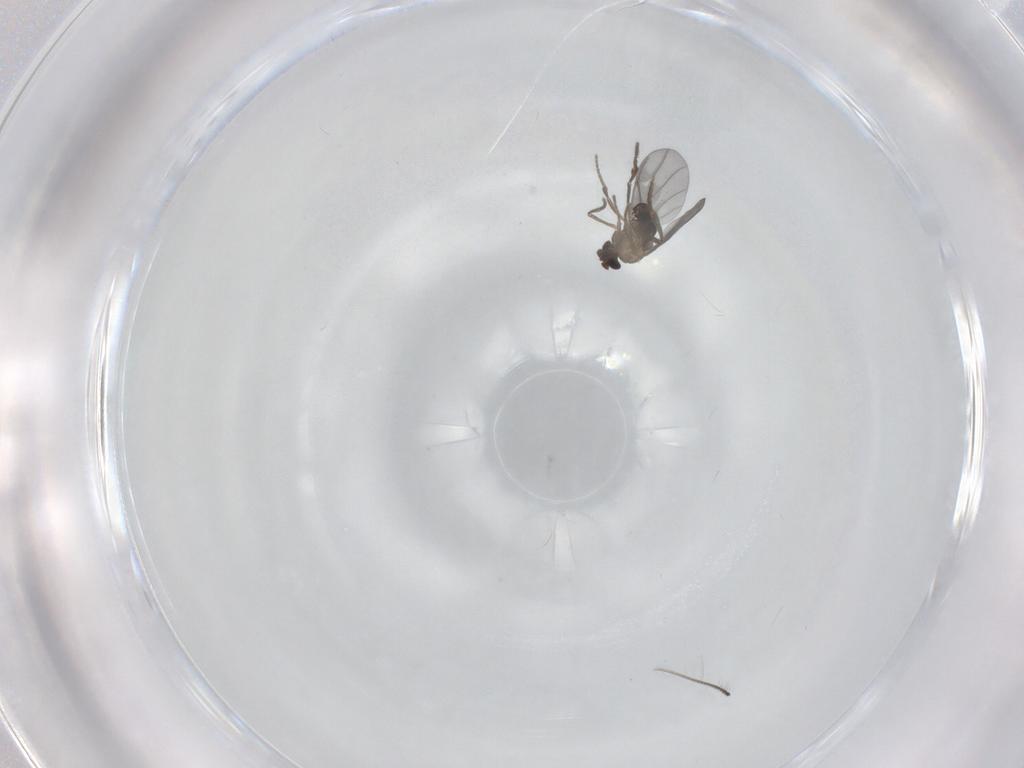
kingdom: Animalia
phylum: Arthropoda
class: Insecta
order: Diptera
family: Phoridae
